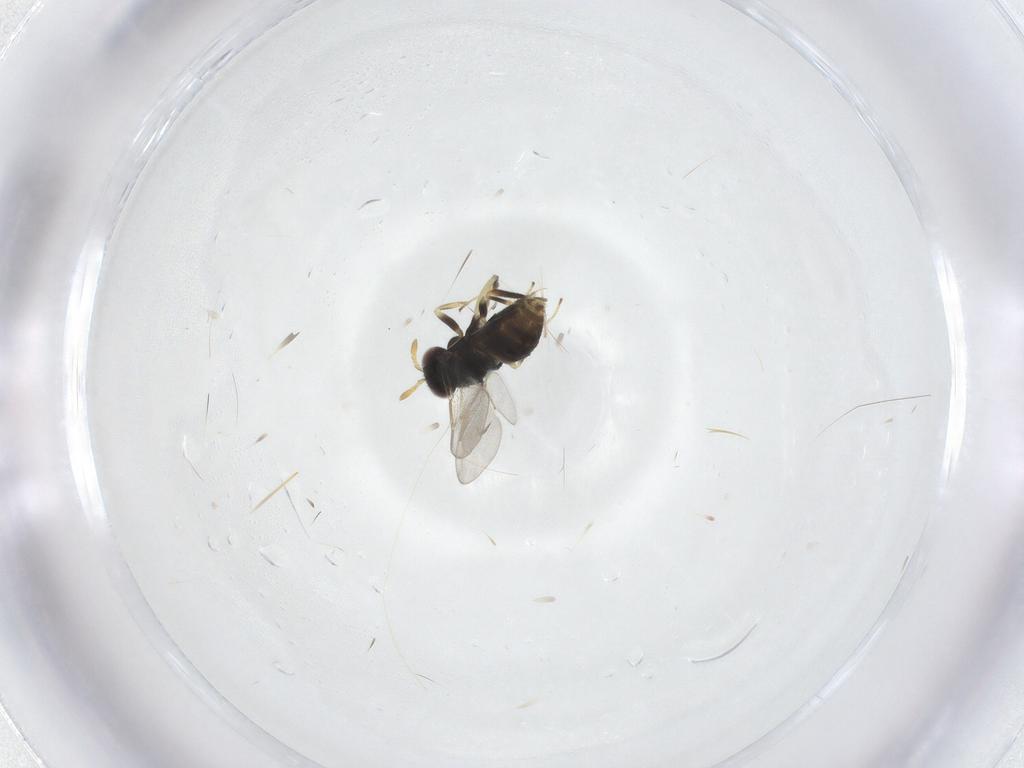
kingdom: Animalia
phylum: Arthropoda
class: Insecta
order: Hymenoptera
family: Aphelinidae
